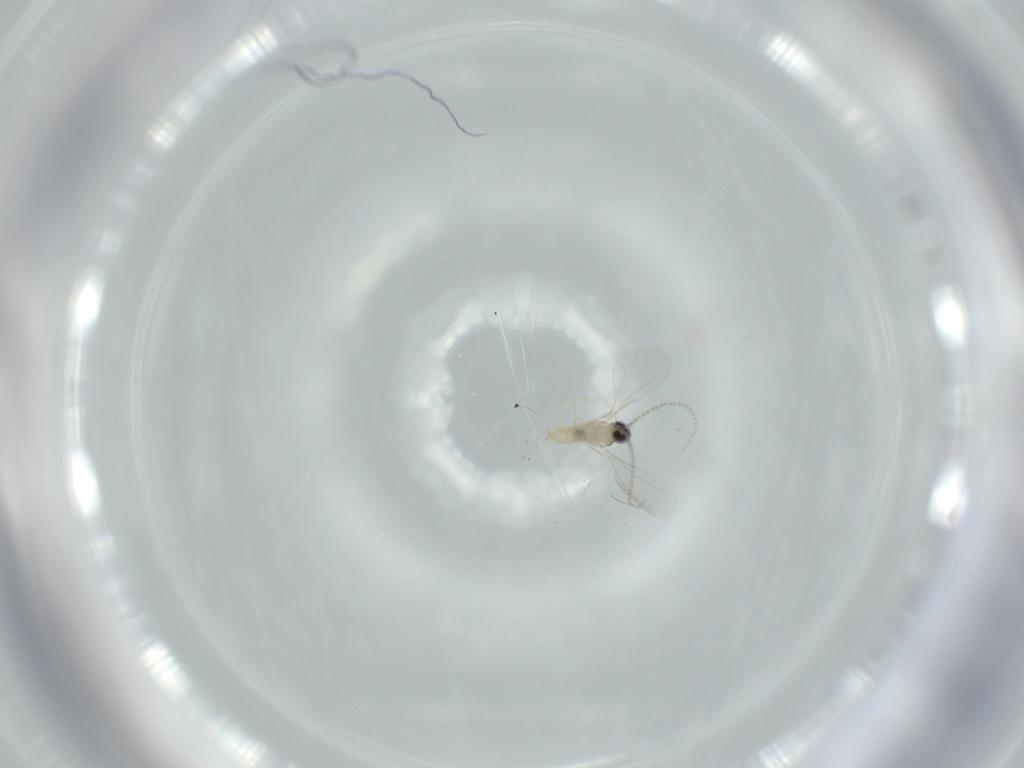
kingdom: Animalia
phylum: Arthropoda
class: Insecta
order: Diptera
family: Cecidomyiidae
